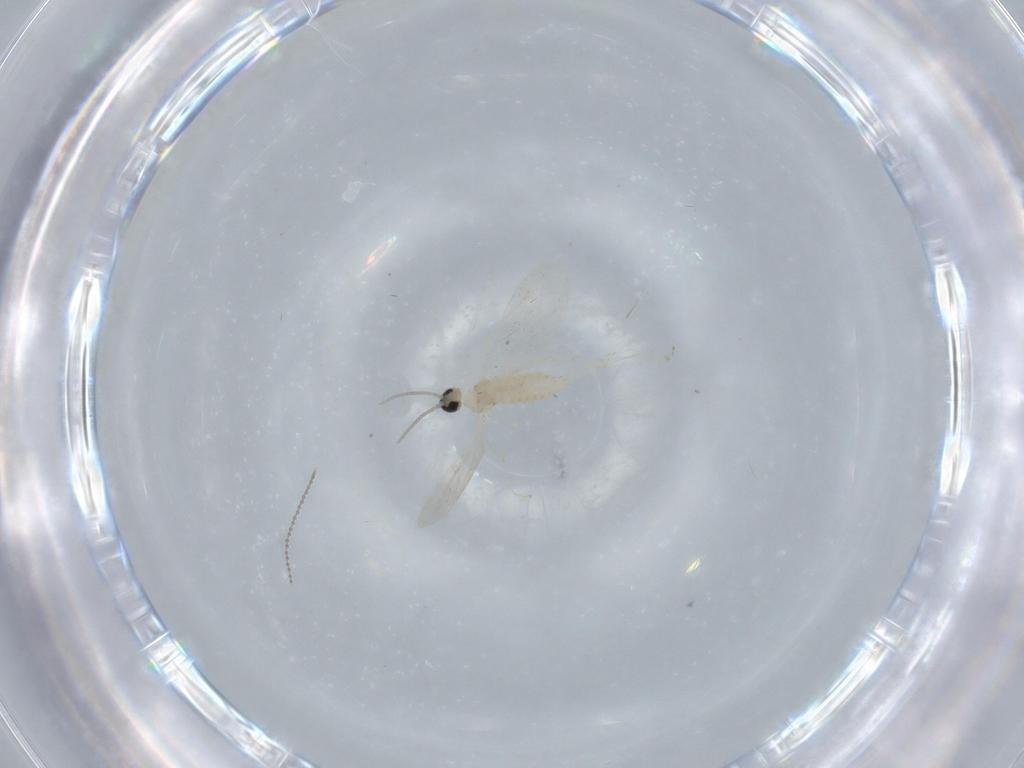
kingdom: Animalia
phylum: Arthropoda
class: Insecta
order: Diptera
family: Cecidomyiidae
